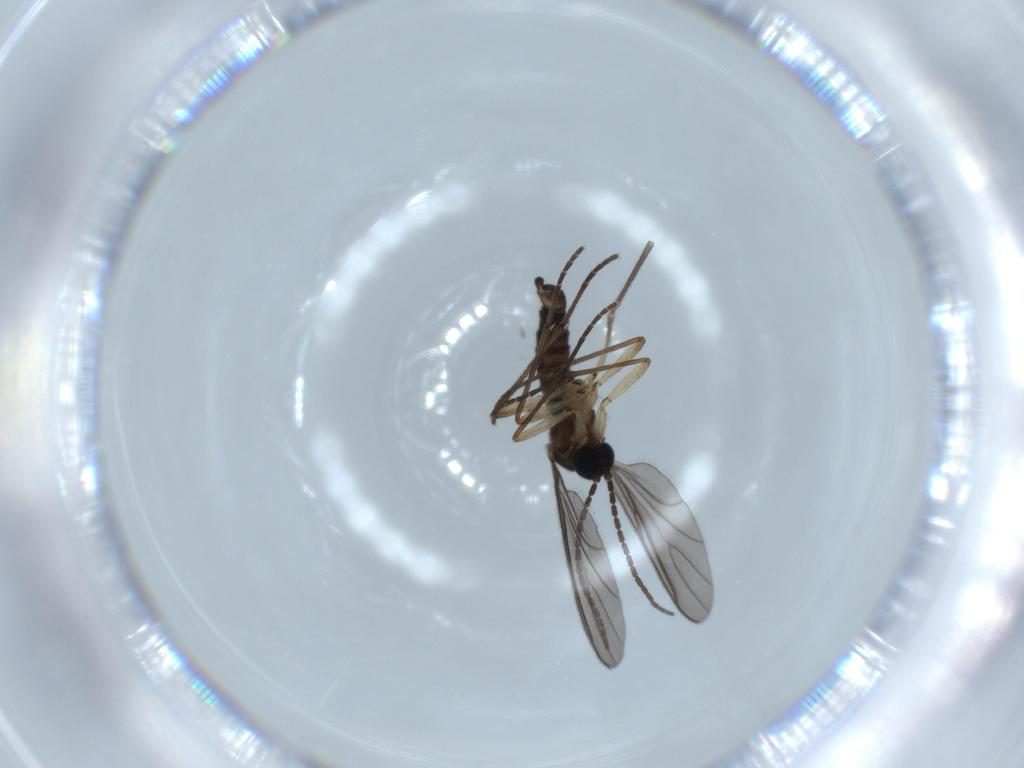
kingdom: Animalia
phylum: Arthropoda
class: Insecta
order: Diptera
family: Sciaridae
